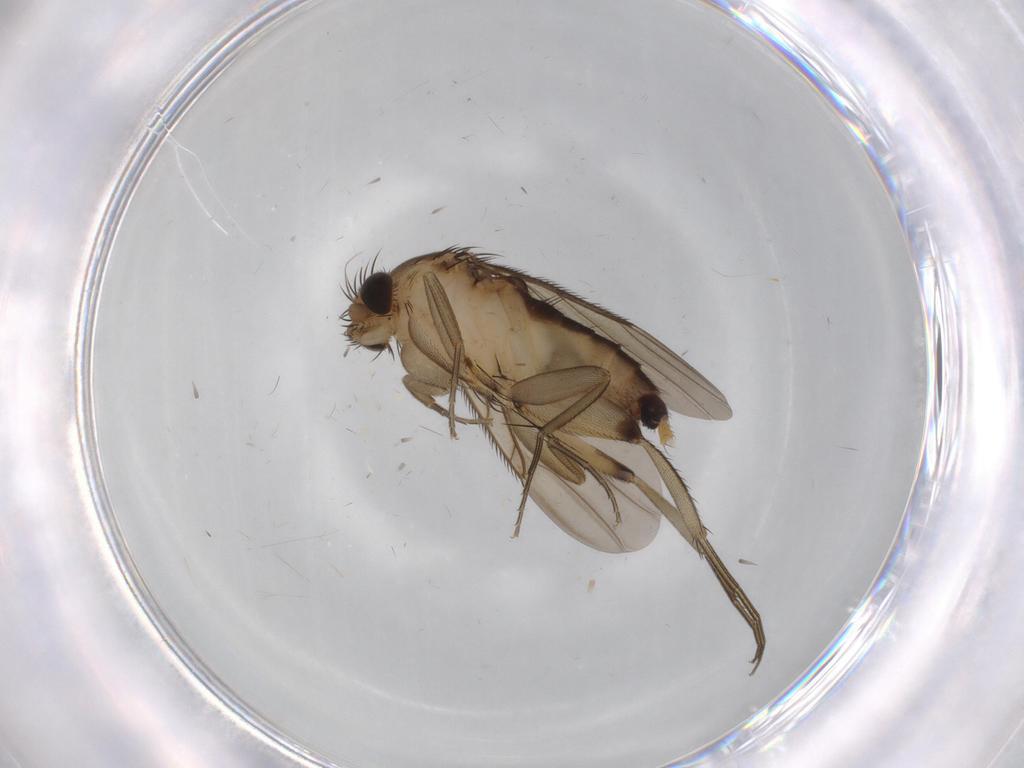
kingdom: Animalia
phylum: Arthropoda
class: Insecta
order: Diptera
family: Phoridae
